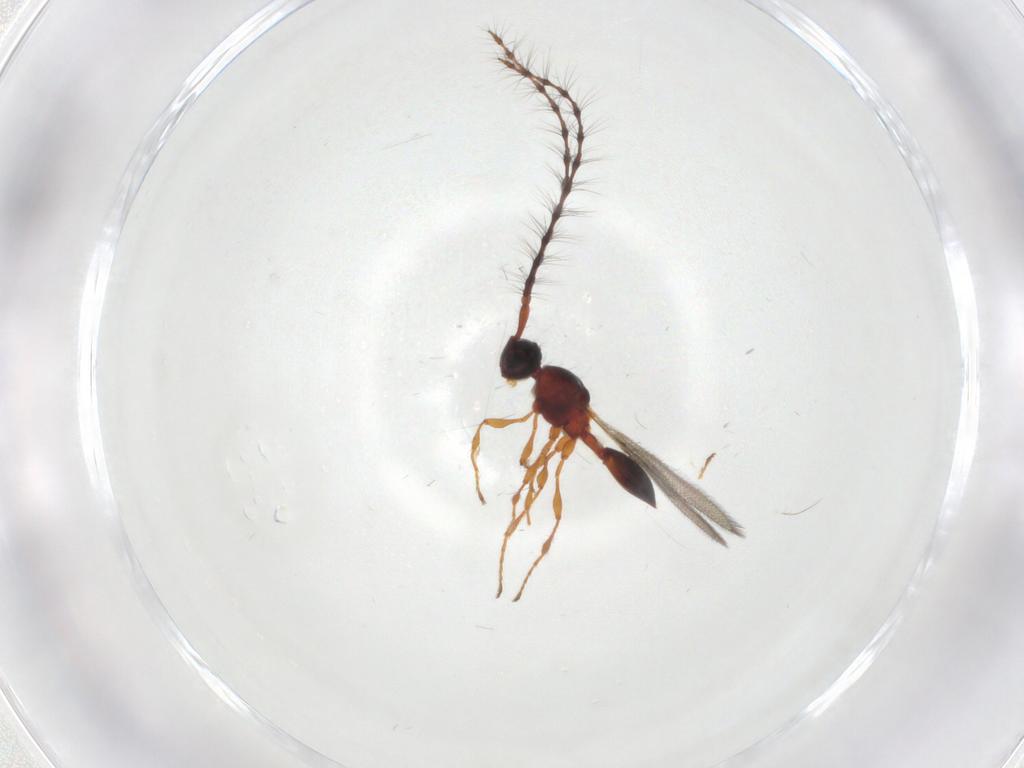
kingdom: Animalia
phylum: Arthropoda
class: Insecta
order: Hymenoptera
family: Diapriidae
